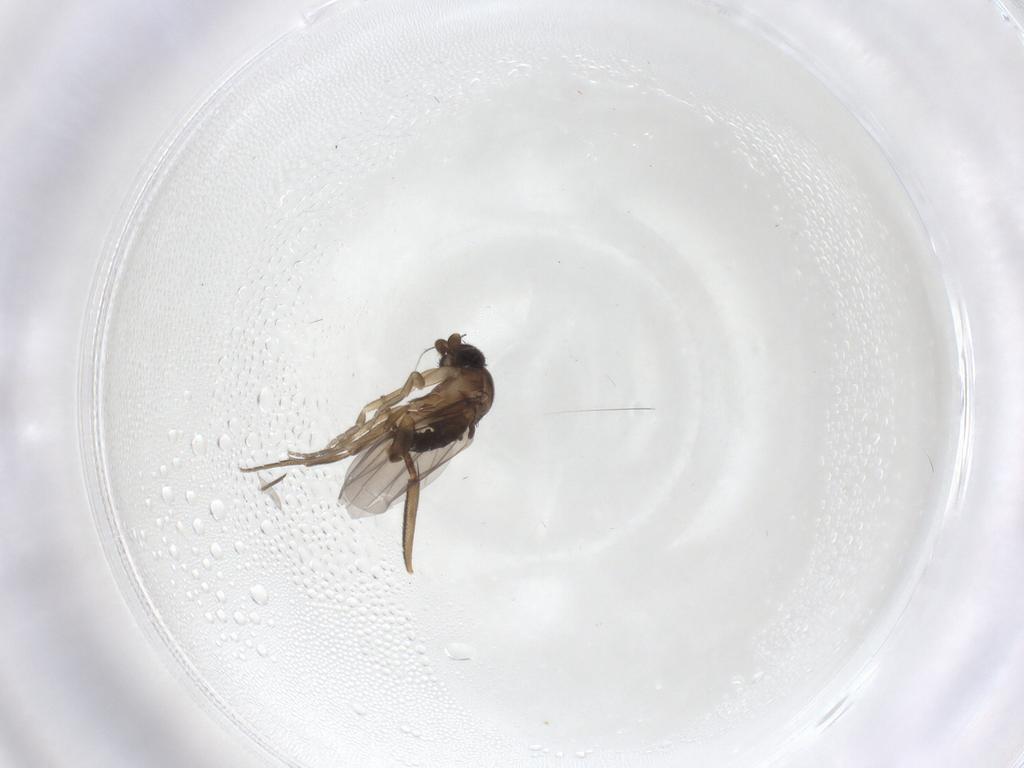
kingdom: Animalia
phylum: Arthropoda
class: Insecta
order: Diptera
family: Phoridae
